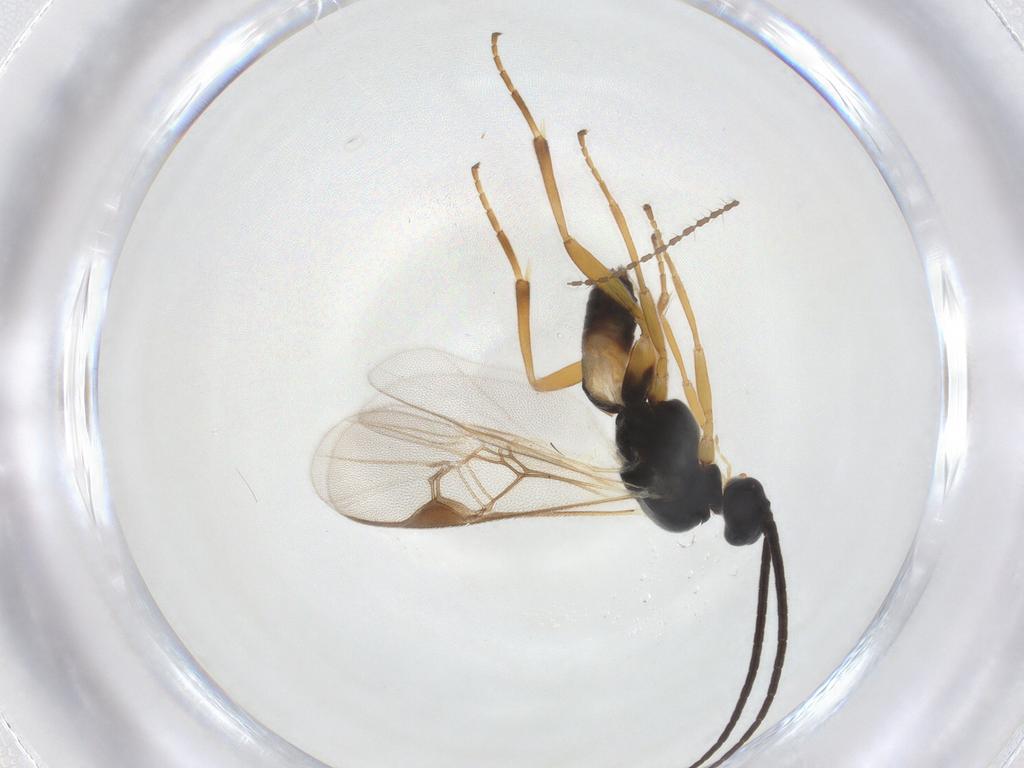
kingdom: Animalia
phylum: Arthropoda
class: Insecta
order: Hymenoptera
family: Braconidae
